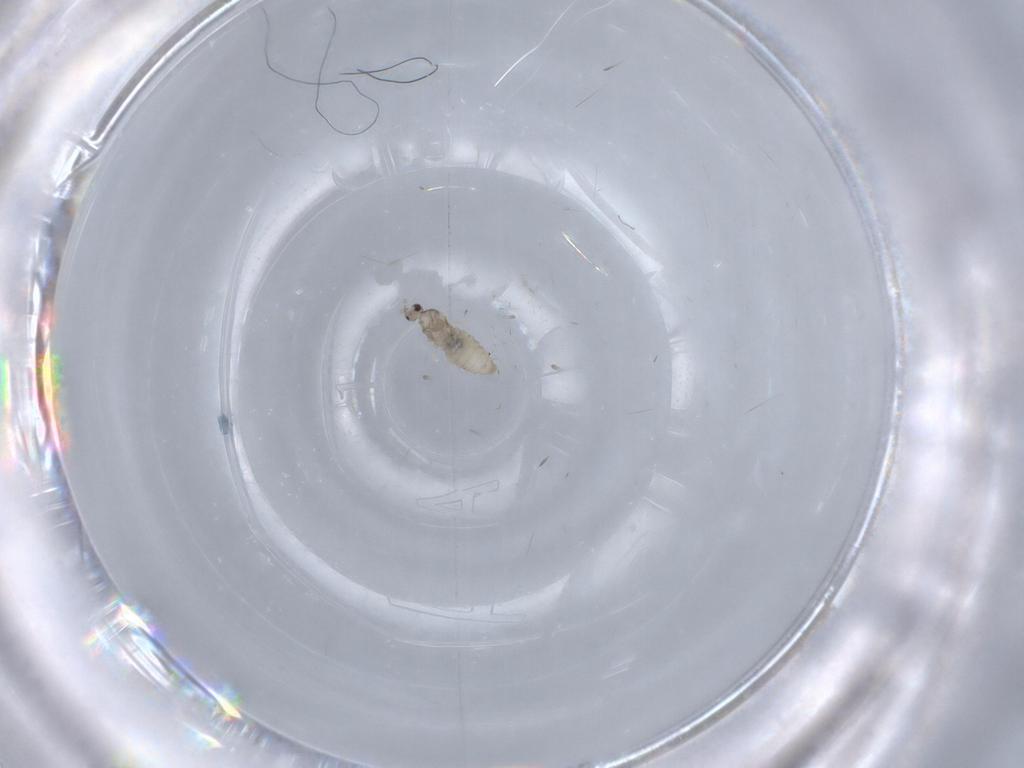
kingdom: Animalia
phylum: Arthropoda
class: Insecta
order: Diptera
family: Cecidomyiidae
